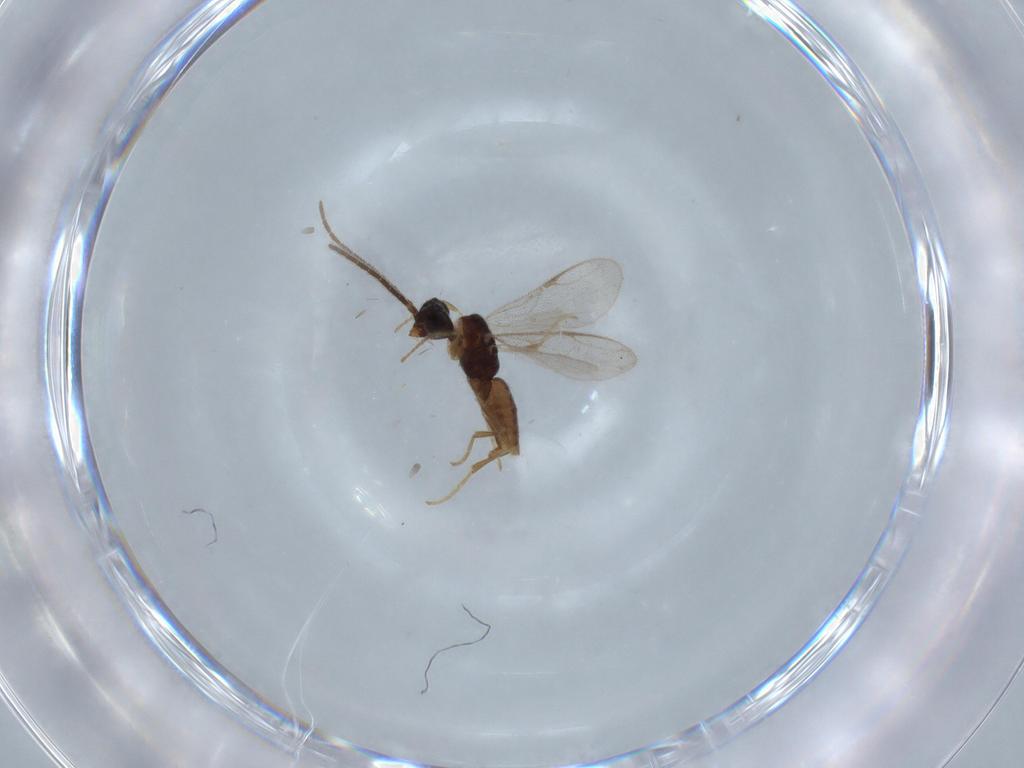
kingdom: Animalia
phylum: Arthropoda
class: Insecta
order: Hymenoptera
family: Dryinidae
